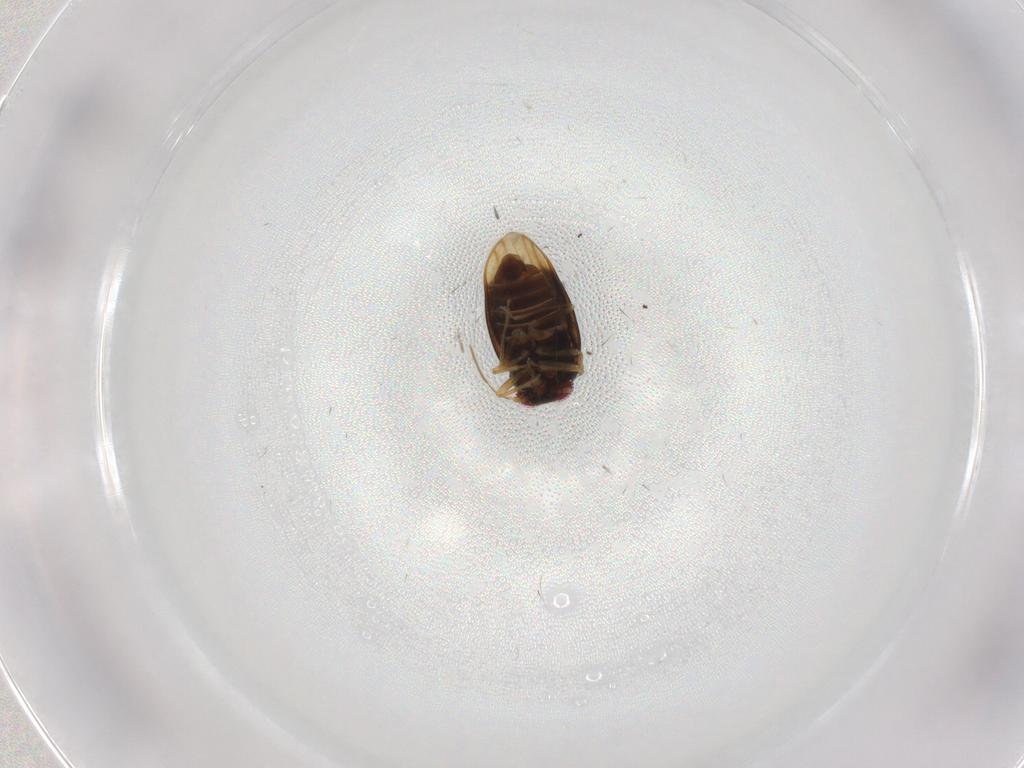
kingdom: Animalia
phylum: Arthropoda
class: Insecta
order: Hemiptera
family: Schizopteridae
